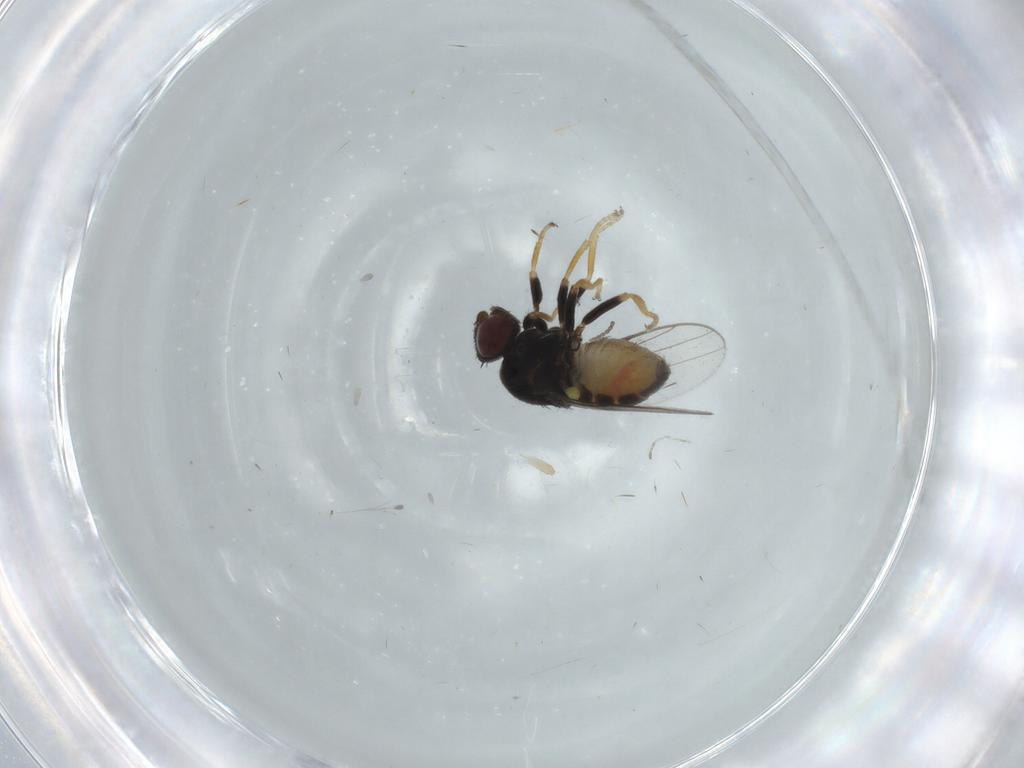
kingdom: Animalia
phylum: Arthropoda
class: Insecta
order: Diptera
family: Chloropidae
